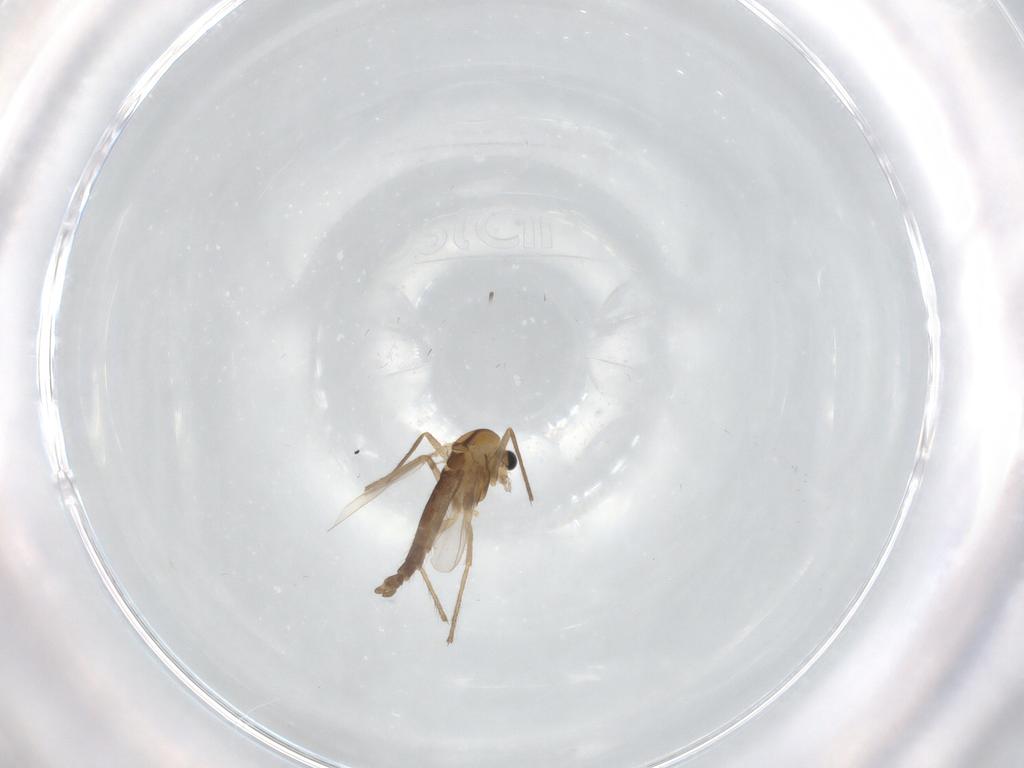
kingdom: Animalia
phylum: Arthropoda
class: Insecta
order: Diptera
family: Chironomidae
